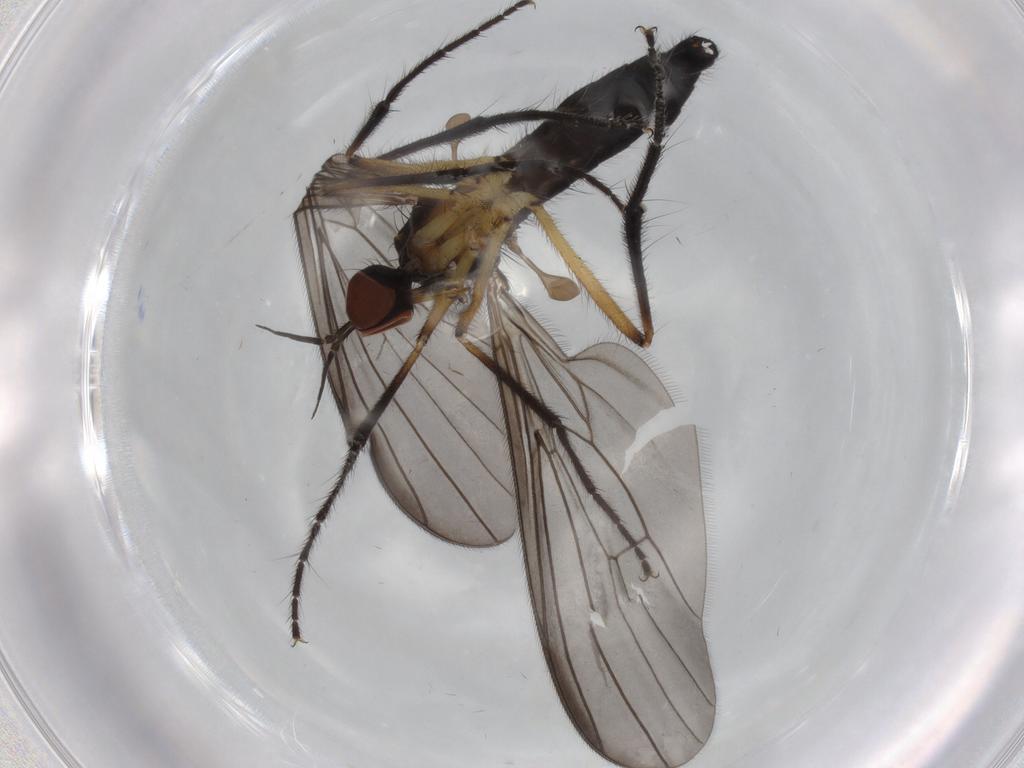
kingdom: Animalia
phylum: Arthropoda
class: Insecta
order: Diptera
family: Empididae
